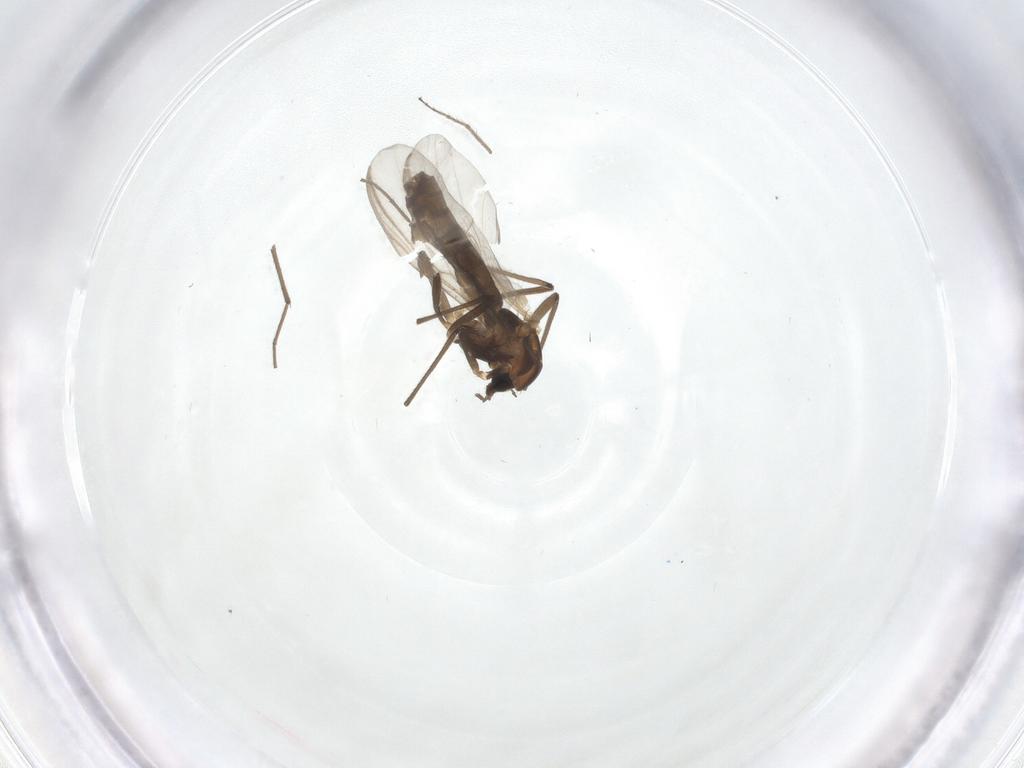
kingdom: Animalia
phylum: Arthropoda
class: Insecta
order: Diptera
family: Chironomidae
